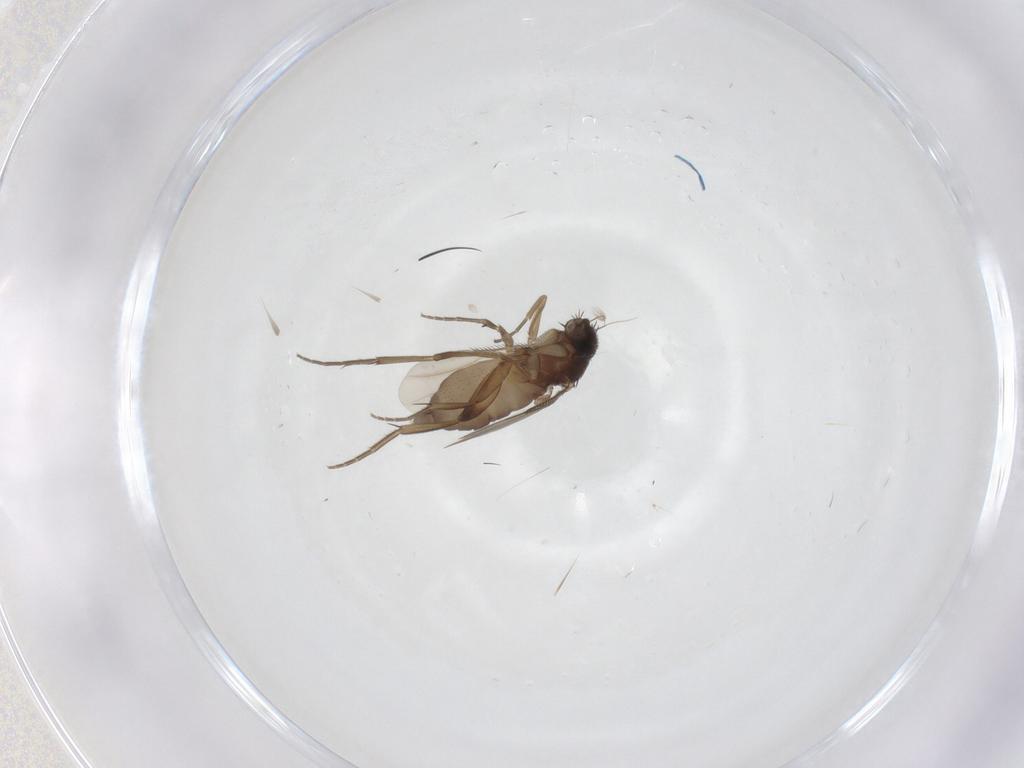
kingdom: Animalia
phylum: Arthropoda
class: Insecta
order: Diptera
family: Phoridae
